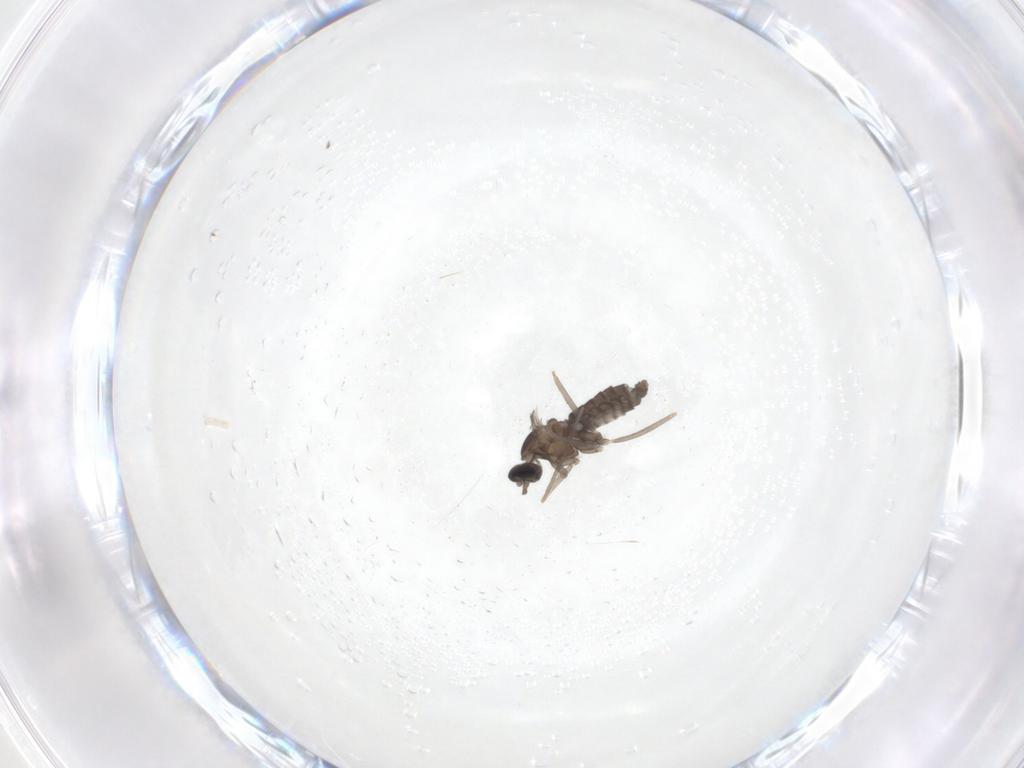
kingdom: Animalia
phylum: Arthropoda
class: Insecta
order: Diptera
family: Cecidomyiidae
